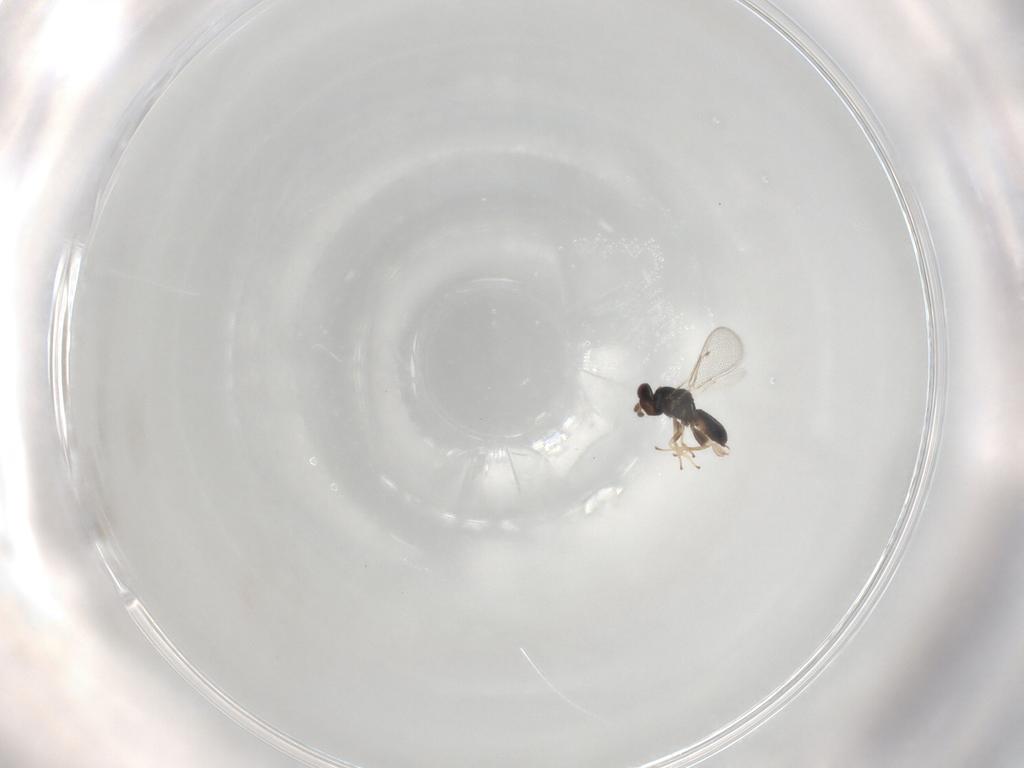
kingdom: Animalia
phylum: Arthropoda
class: Insecta
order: Hymenoptera
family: Eulophidae
